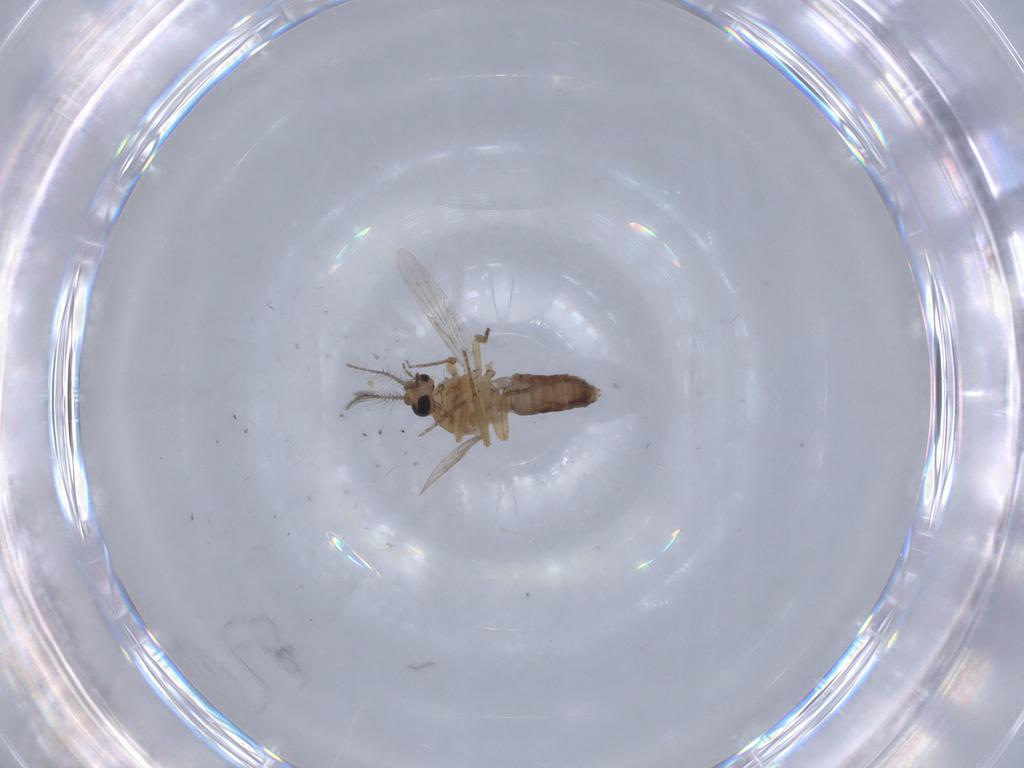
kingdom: Animalia
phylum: Arthropoda
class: Insecta
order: Diptera
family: Ceratopogonidae
